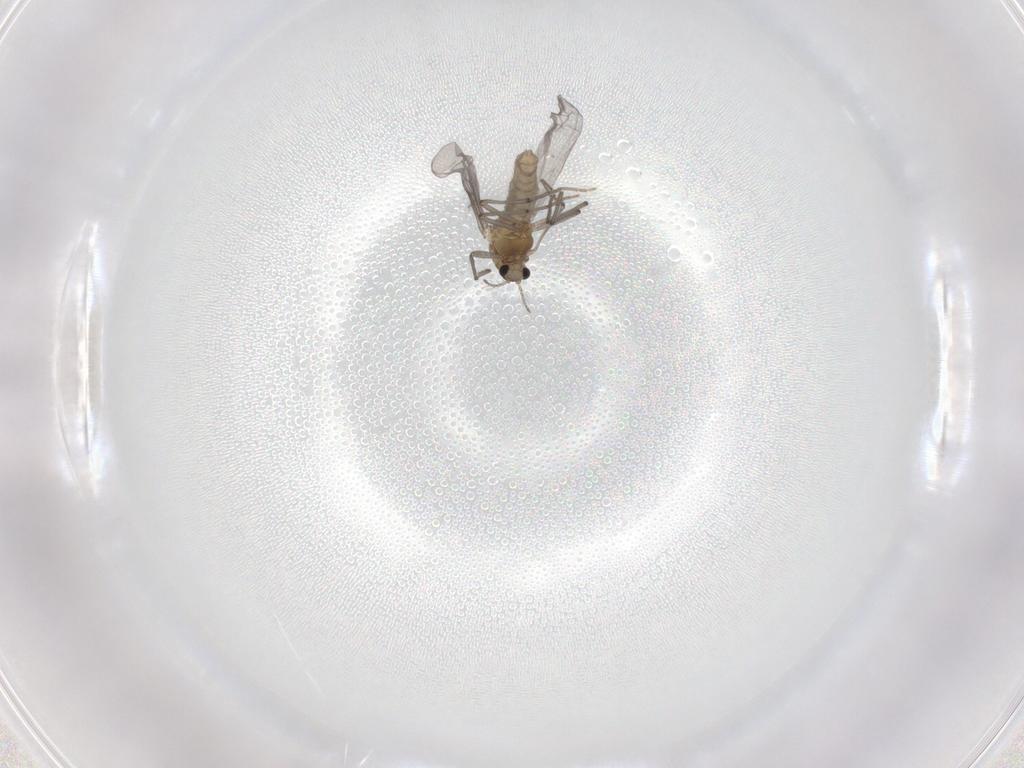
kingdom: Animalia
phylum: Arthropoda
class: Insecta
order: Diptera
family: Chironomidae
